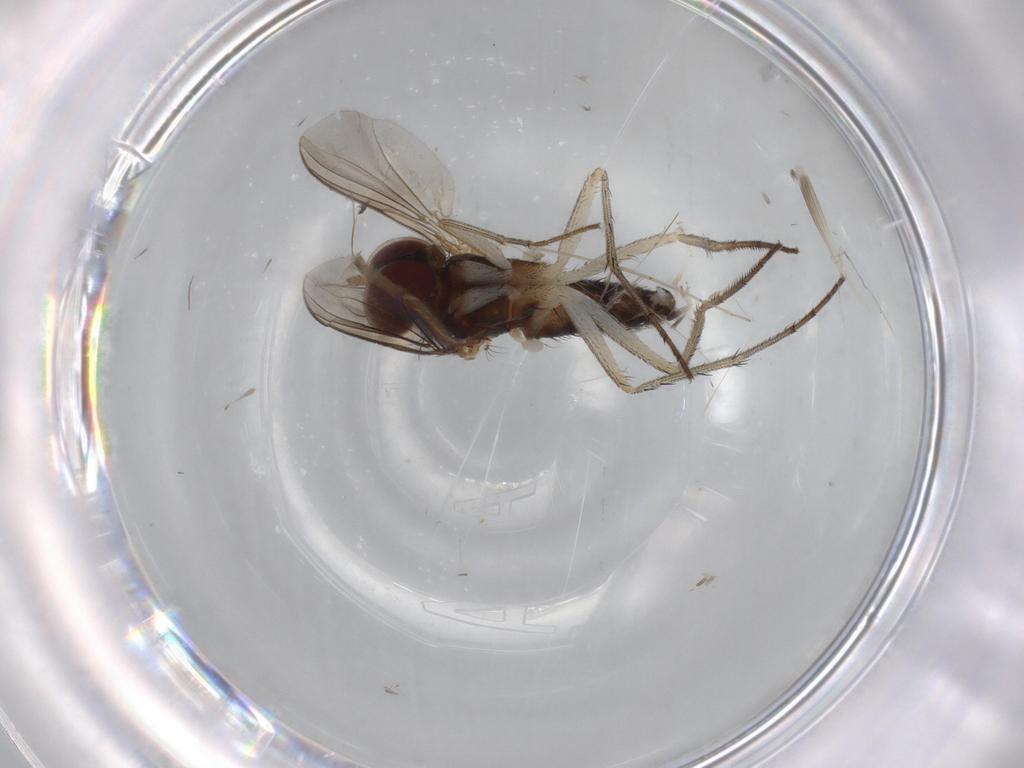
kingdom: Animalia
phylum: Arthropoda
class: Insecta
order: Diptera
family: Dolichopodidae
